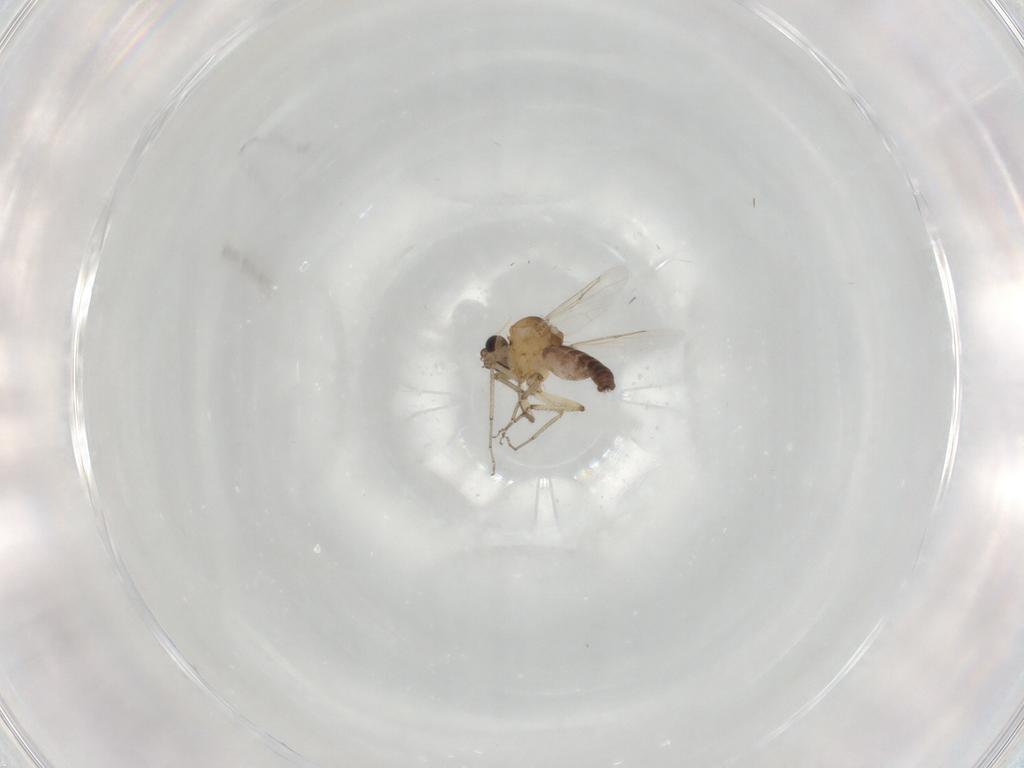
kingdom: Animalia
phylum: Arthropoda
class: Insecta
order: Diptera
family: Ceratopogonidae
